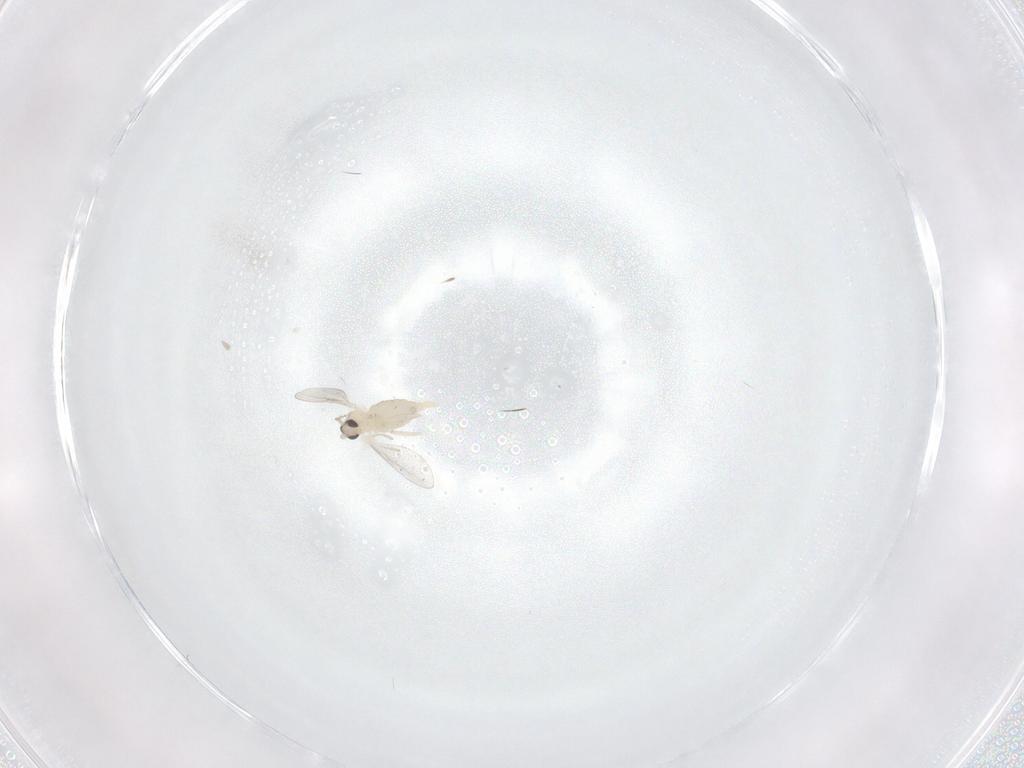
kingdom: Animalia
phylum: Arthropoda
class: Insecta
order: Diptera
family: Cecidomyiidae
